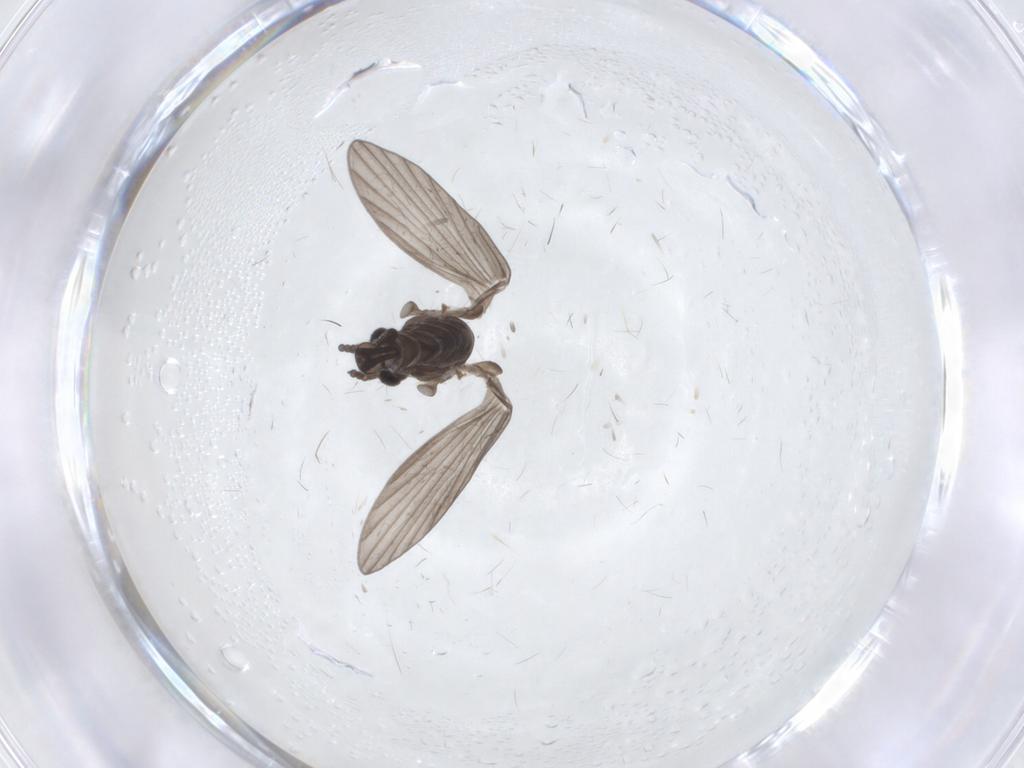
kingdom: Animalia
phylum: Arthropoda
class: Insecta
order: Diptera
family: Psychodidae
